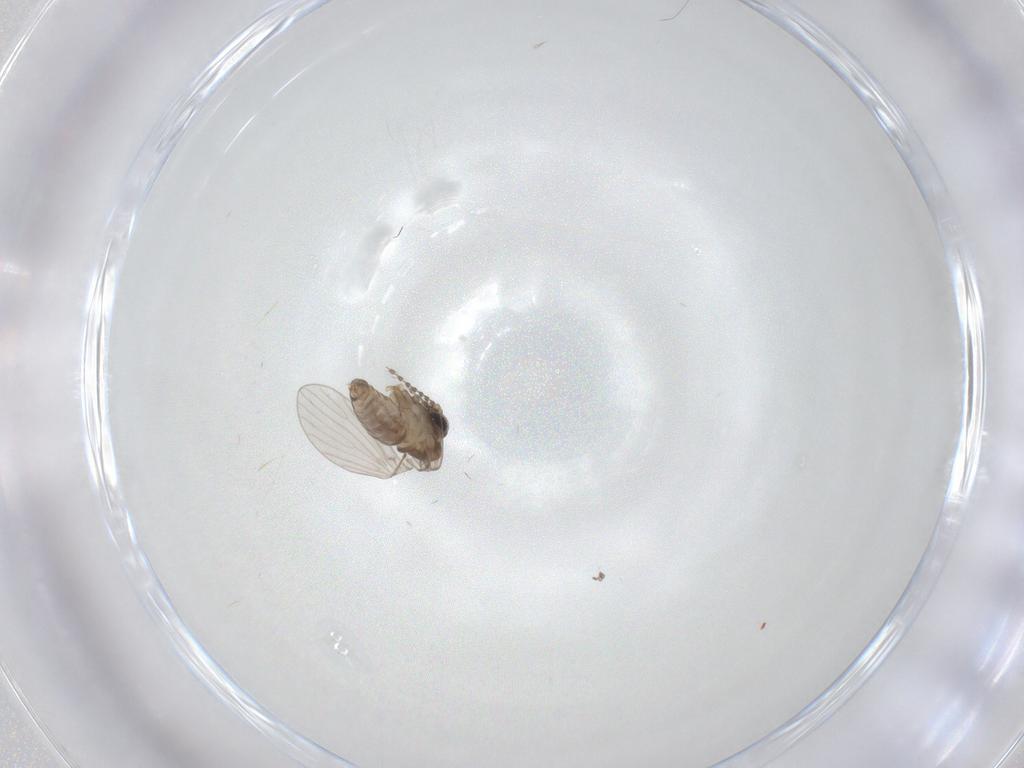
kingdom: Animalia
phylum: Arthropoda
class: Insecta
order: Diptera
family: Psychodidae
